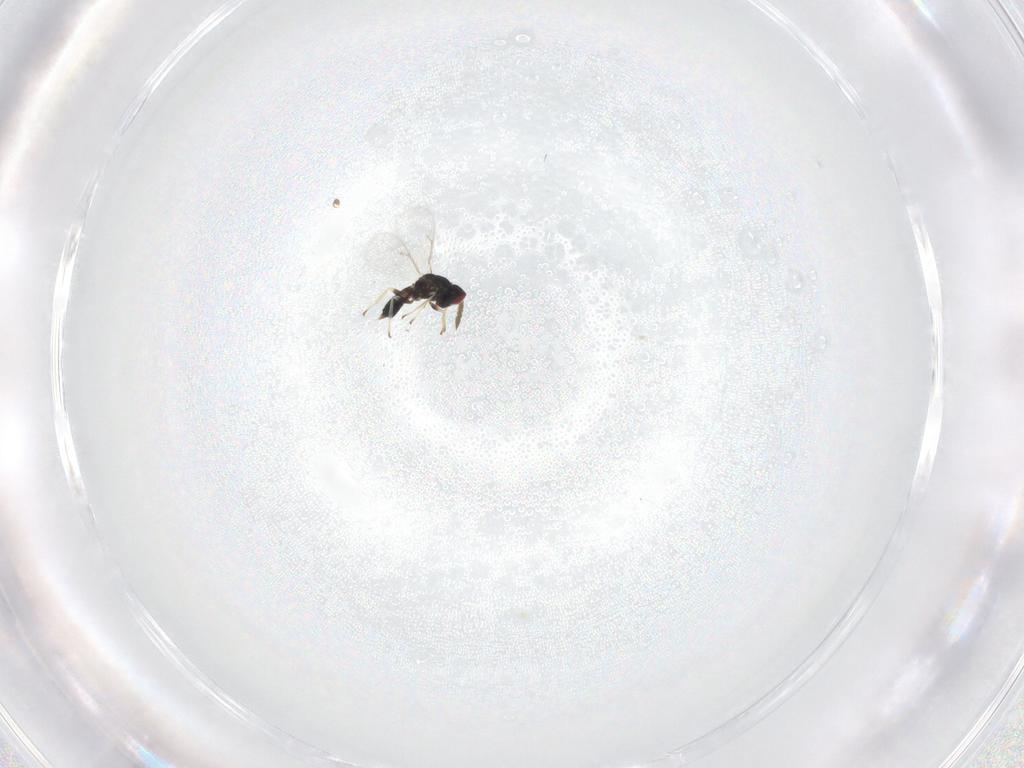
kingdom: Animalia
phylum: Arthropoda
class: Insecta
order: Hymenoptera
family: Eulophidae
